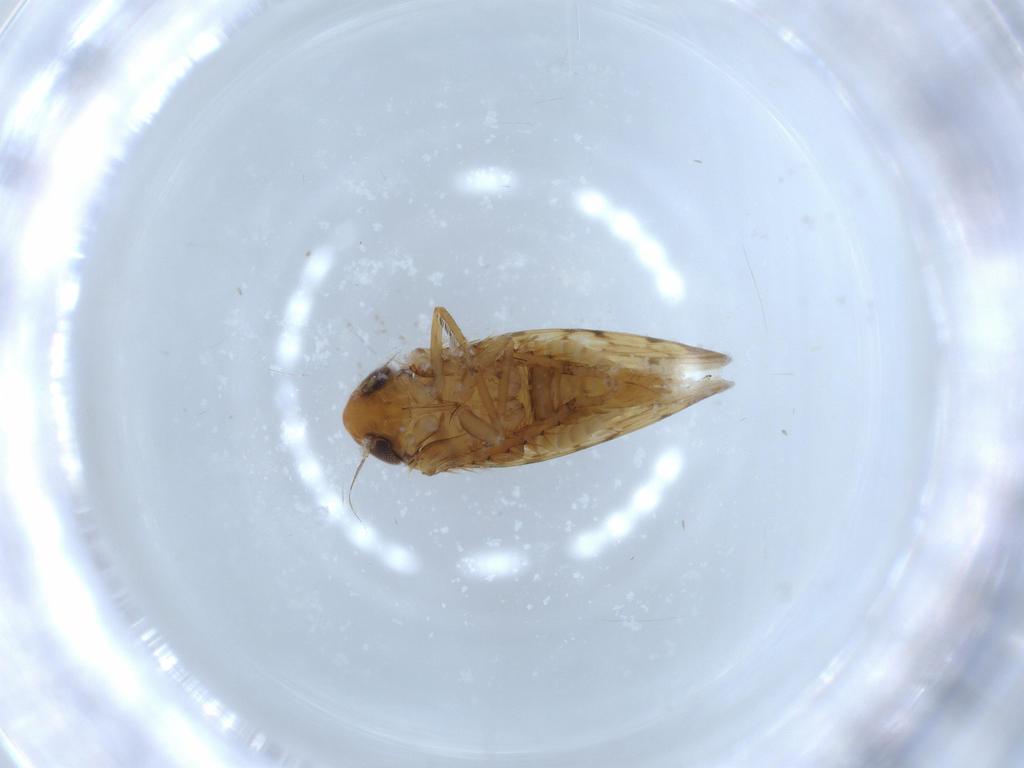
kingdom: Animalia
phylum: Arthropoda
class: Insecta
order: Hemiptera
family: Cicadellidae
